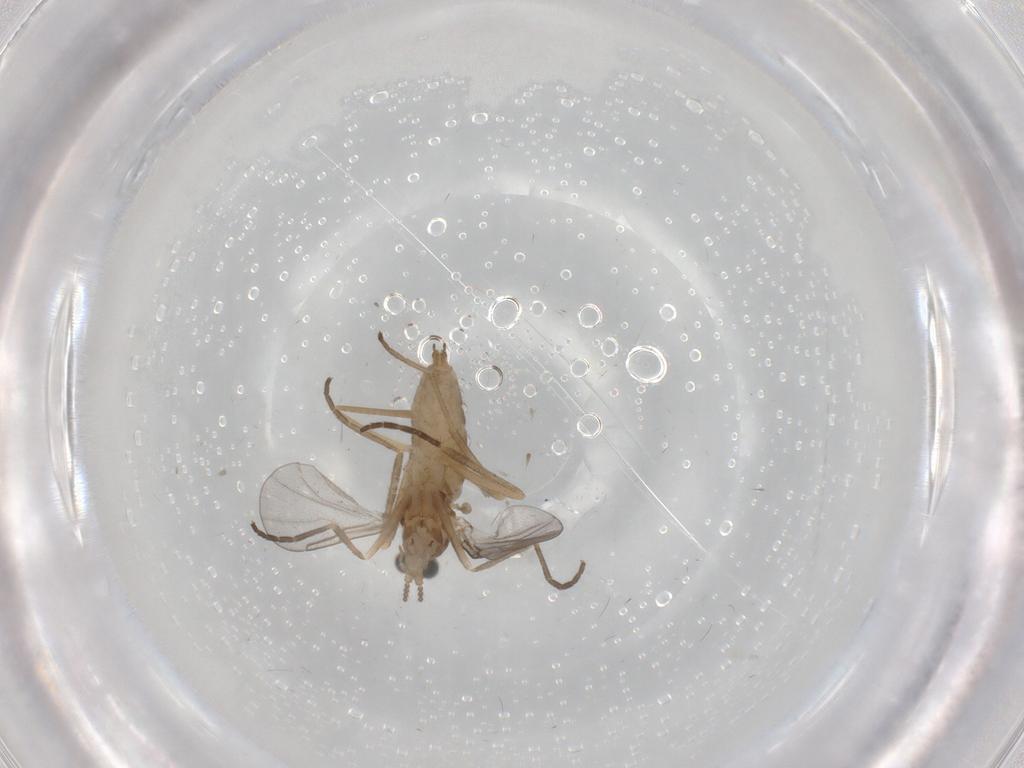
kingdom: Animalia
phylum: Arthropoda
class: Insecta
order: Diptera
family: Cecidomyiidae
